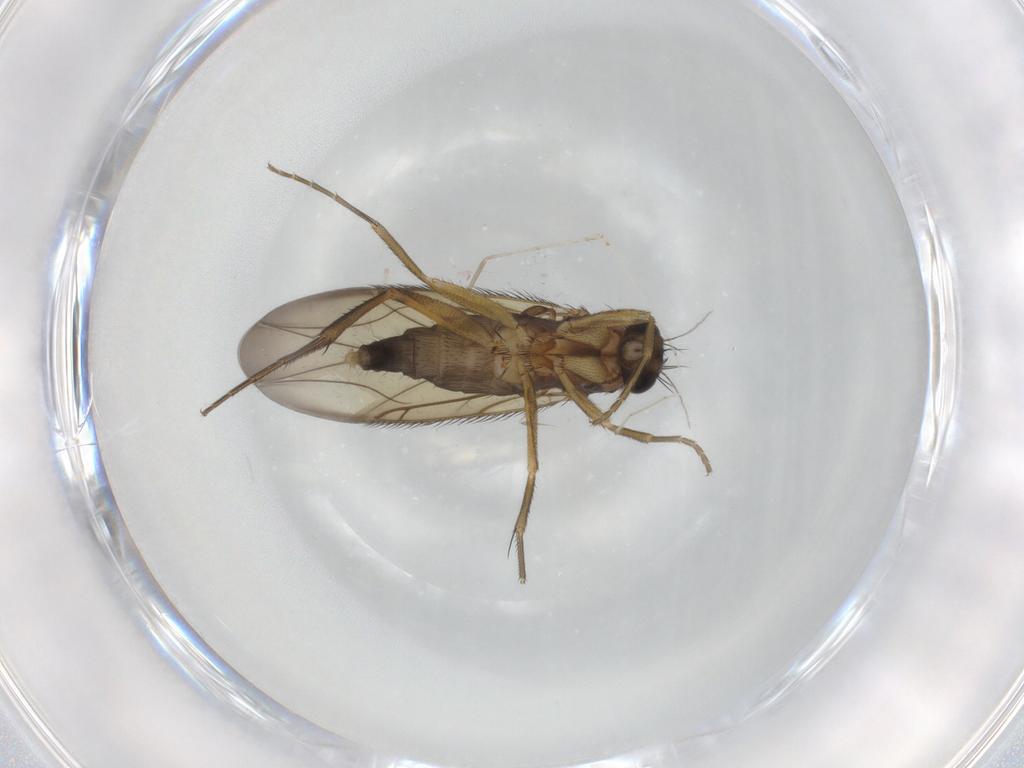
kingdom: Animalia
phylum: Arthropoda
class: Insecta
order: Diptera
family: Phoridae
